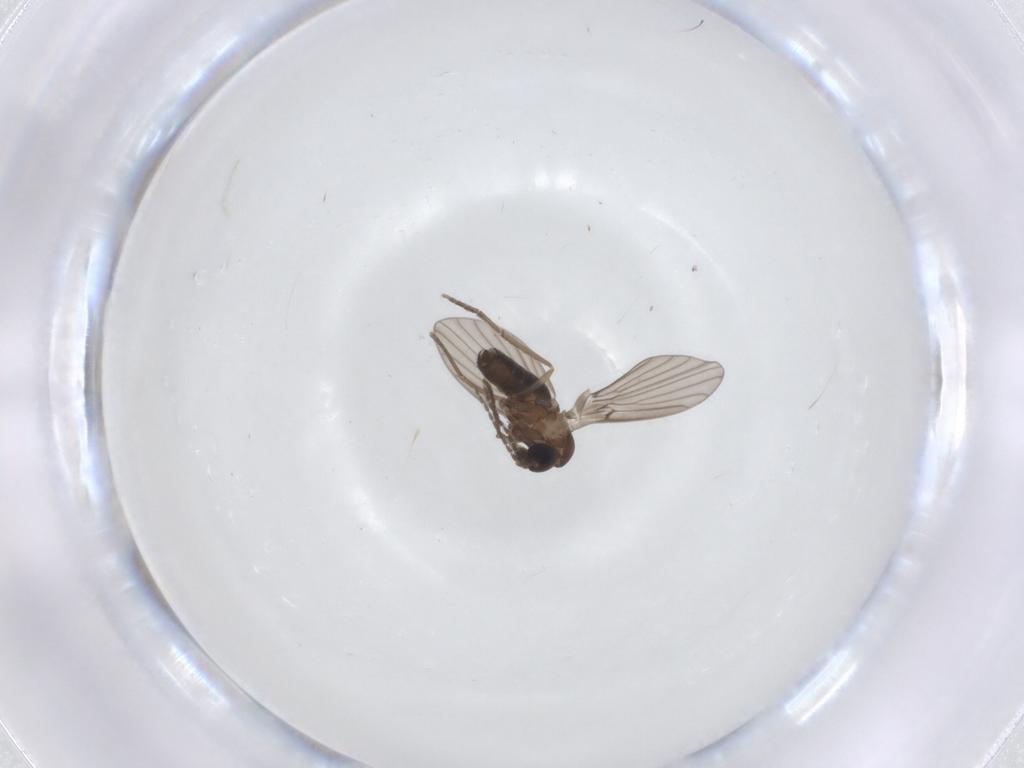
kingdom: Animalia
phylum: Arthropoda
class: Insecta
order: Diptera
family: Psychodidae
